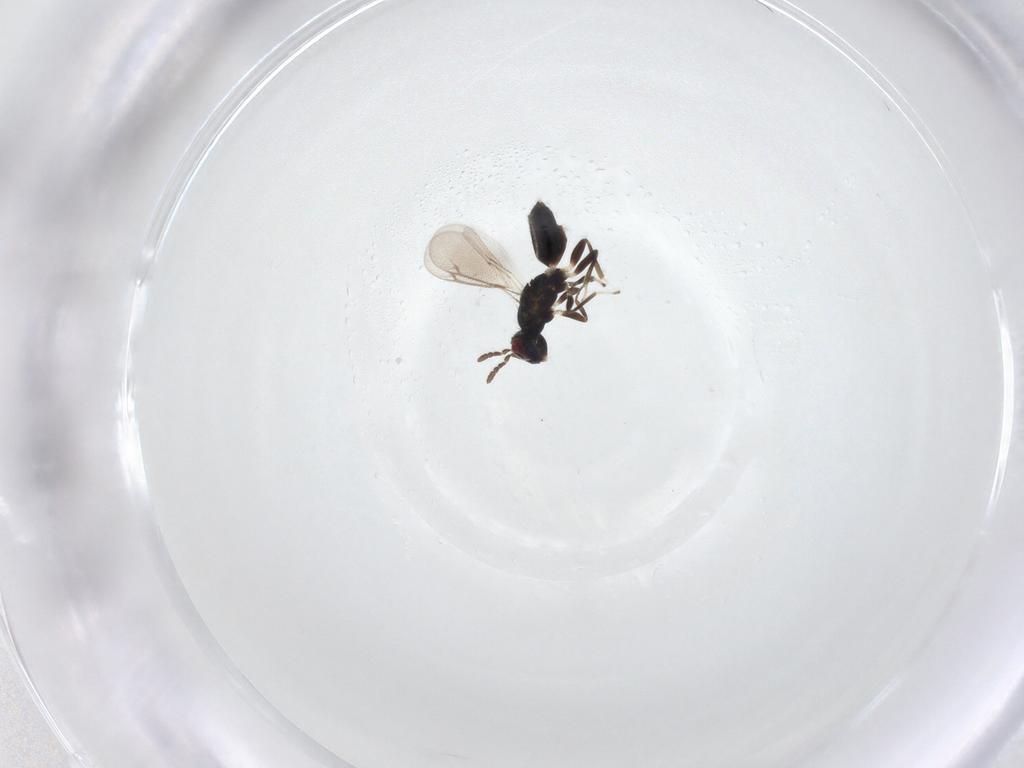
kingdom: Animalia
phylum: Arthropoda
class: Insecta
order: Hymenoptera
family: Eulophidae
